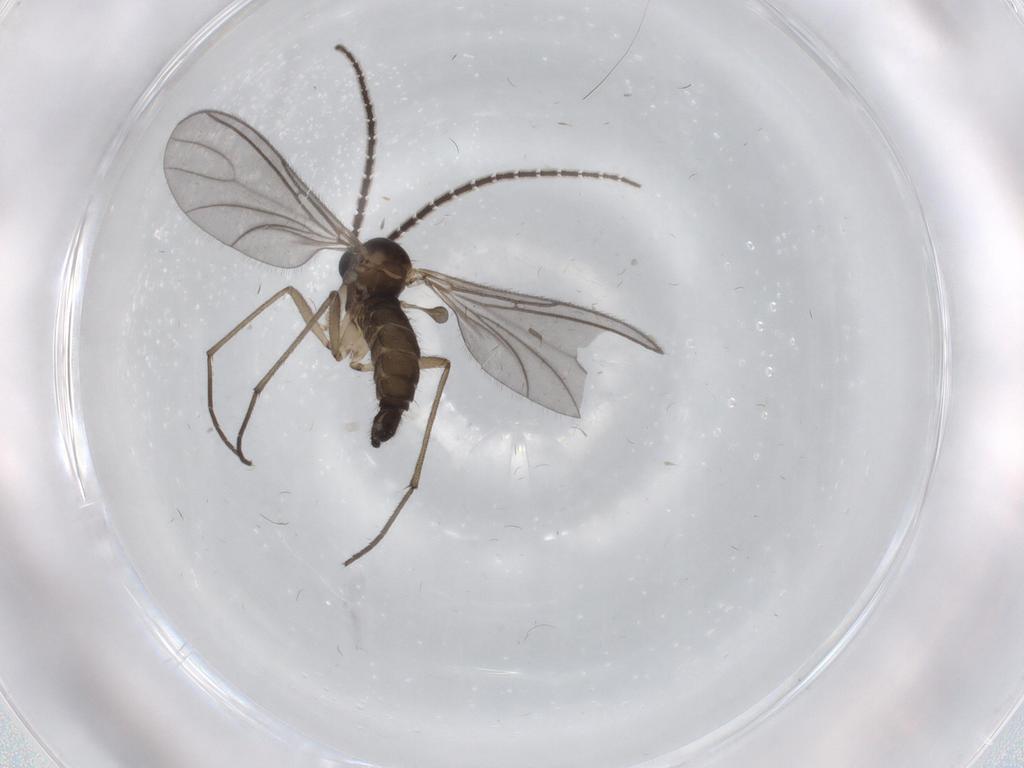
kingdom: Animalia
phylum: Arthropoda
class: Insecta
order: Diptera
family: Sciaridae
